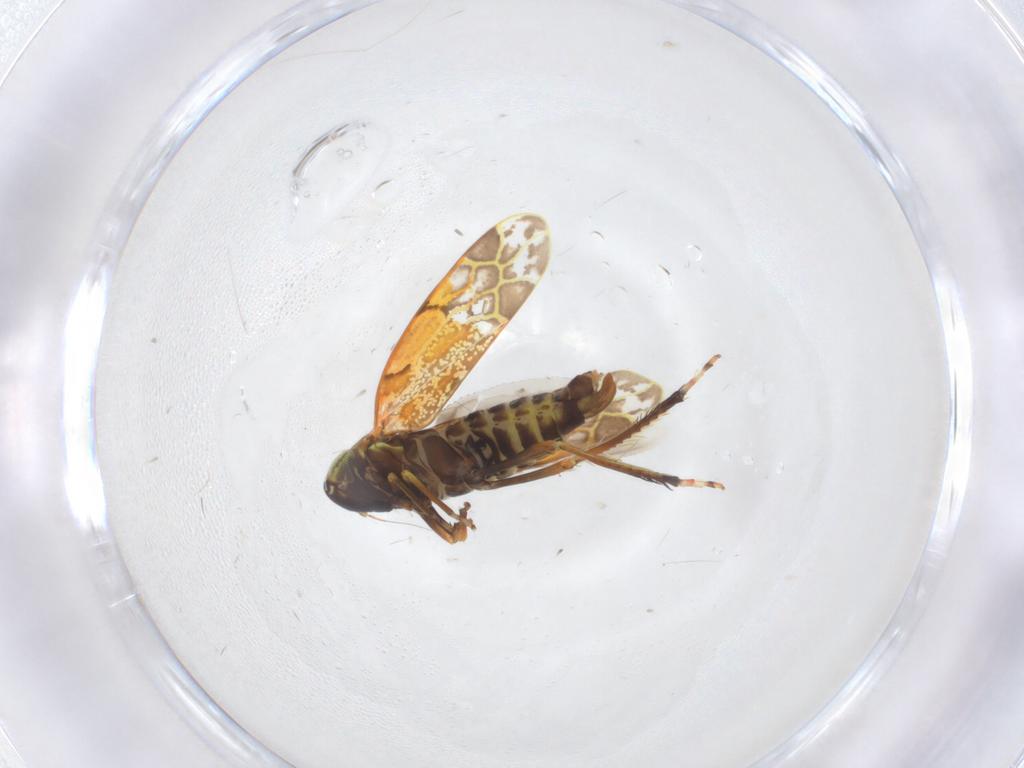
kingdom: Animalia
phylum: Arthropoda
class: Insecta
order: Hemiptera
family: Cicadellidae
